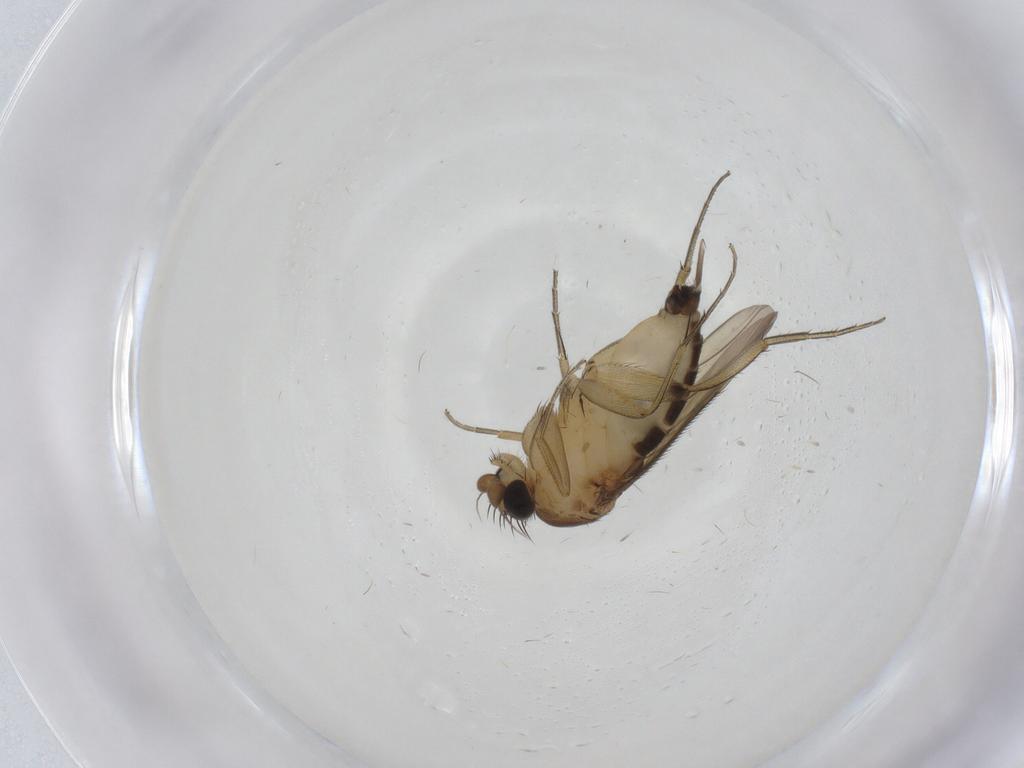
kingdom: Animalia
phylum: Arthropoda
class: Insecta
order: Diptera
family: Phoridae
